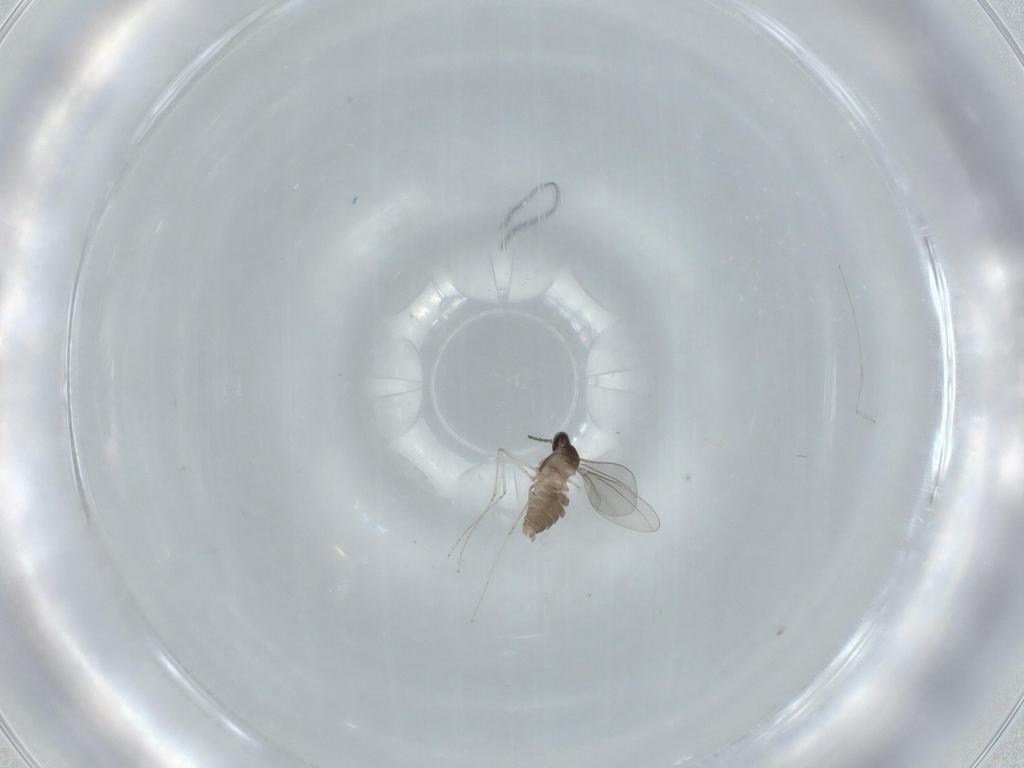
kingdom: Animalia
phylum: Arthropoda
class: Insecta
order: Diptera
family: Cecidomyiidae
